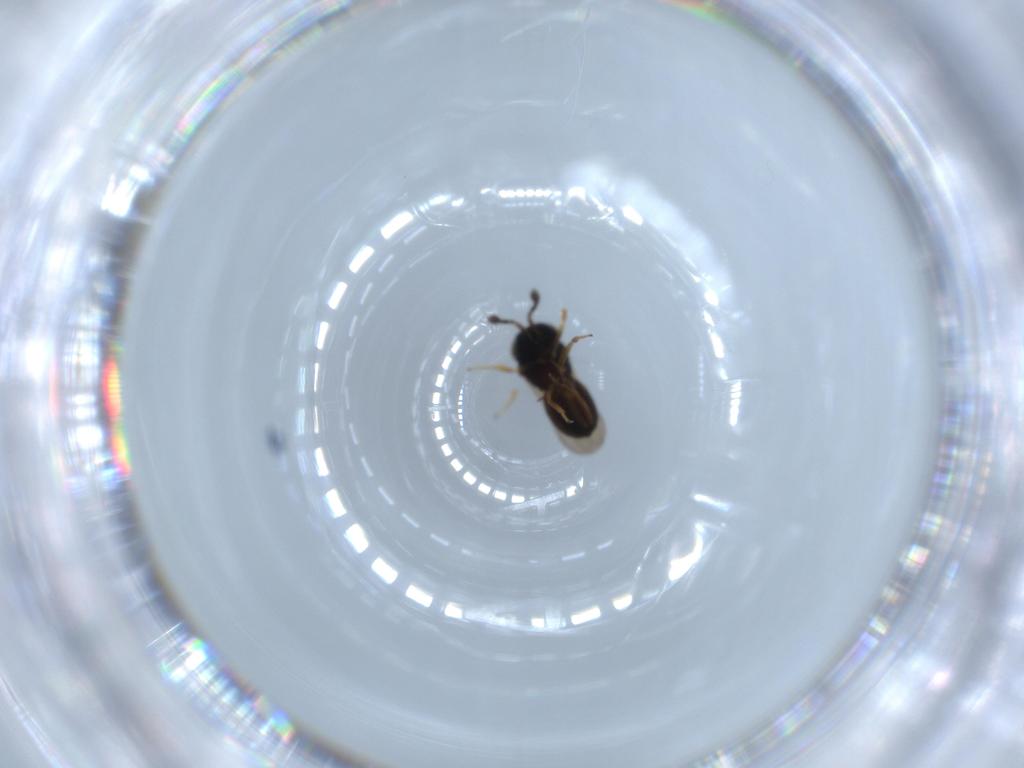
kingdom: Animalia
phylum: Arthropoda
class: Insecta
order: Hymenoptera
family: Scelionidae
